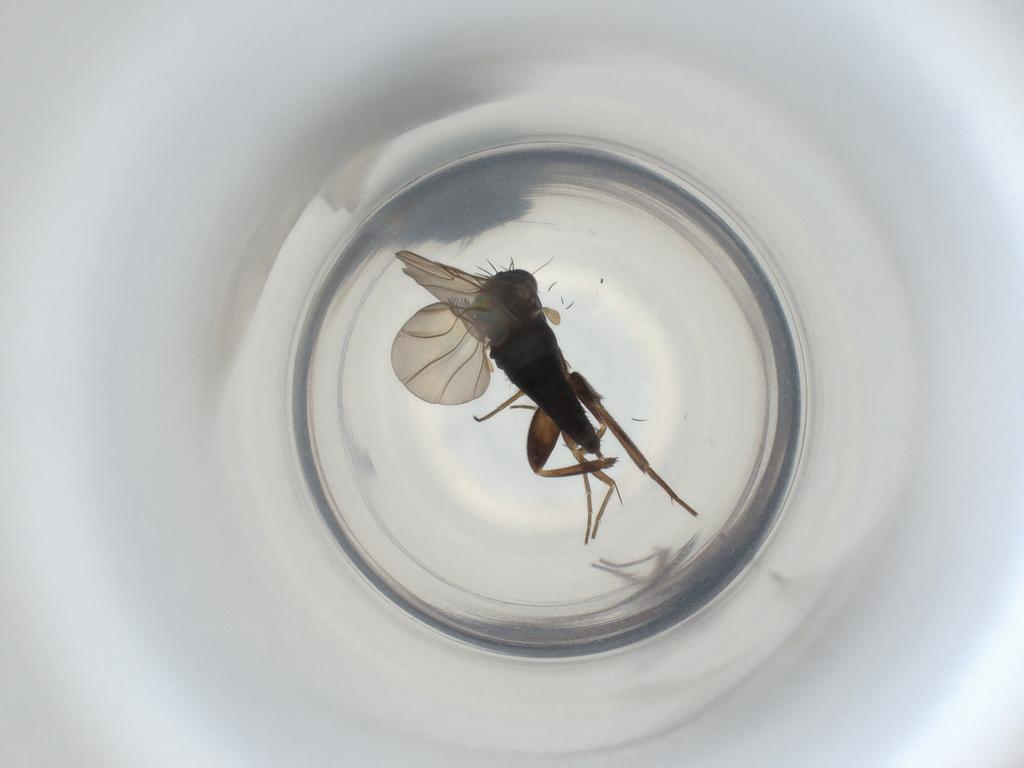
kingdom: Animalia
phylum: Arthropoda
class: Insecta
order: Diptera
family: Phoridae
